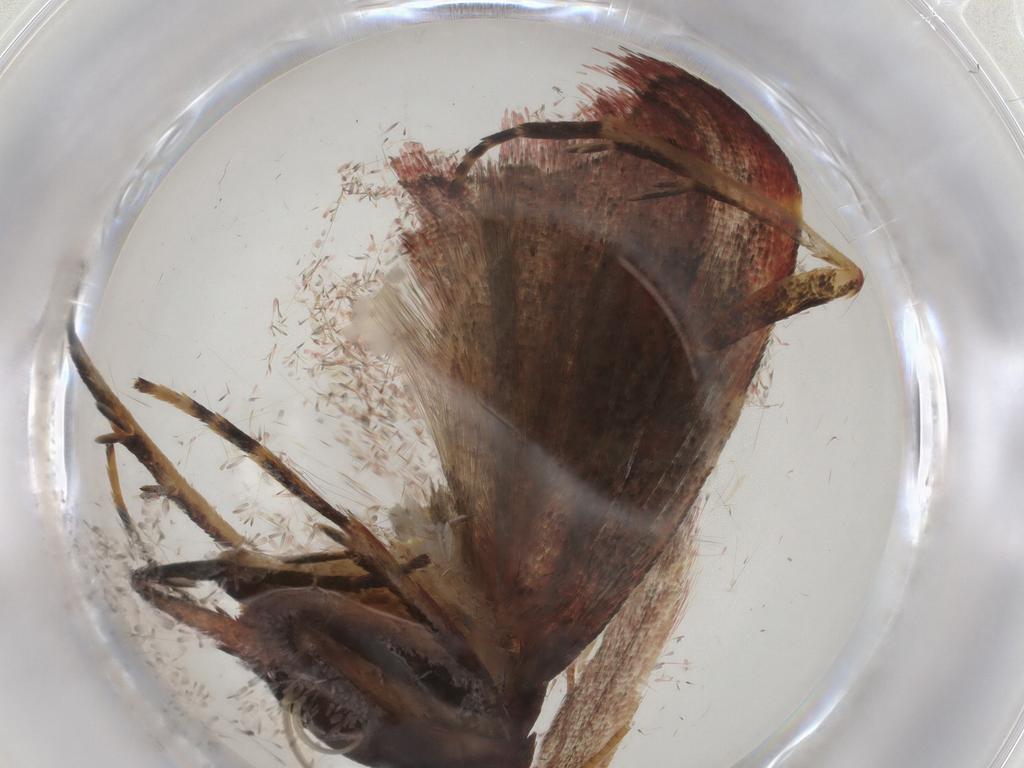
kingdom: Animalia
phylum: Arthropoda
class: Insecta
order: Lepidoptera
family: Pyralidae
